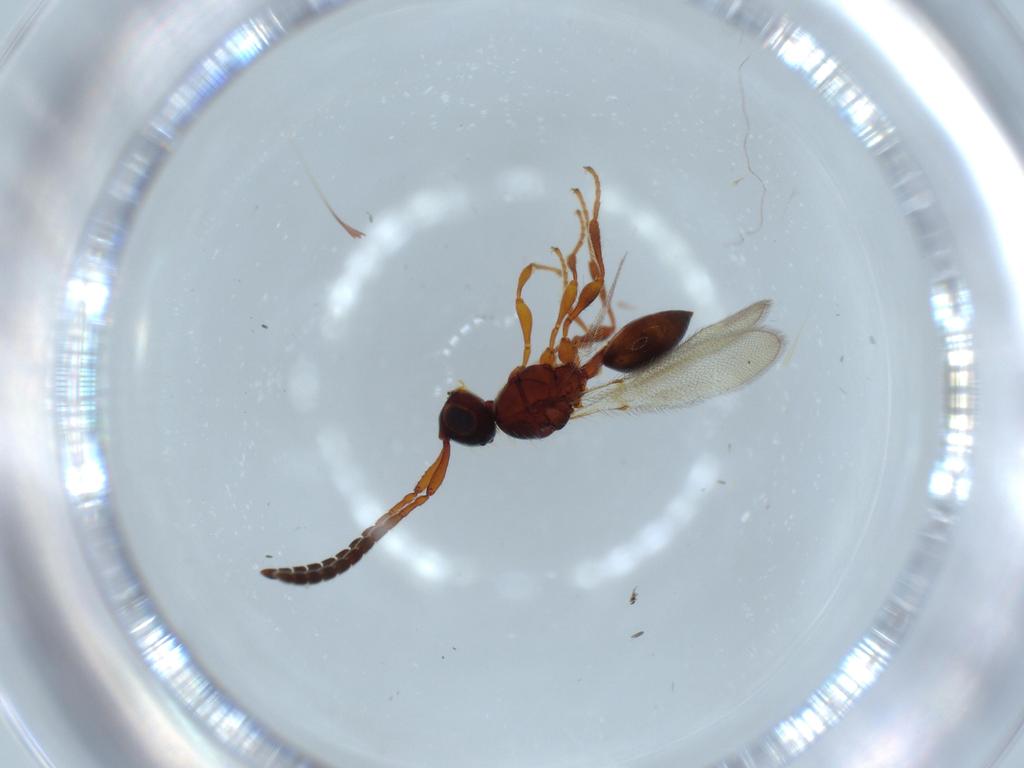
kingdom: Animalia
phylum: Arthropoda
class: Insecta
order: Hymenoptera
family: Diapriidae
